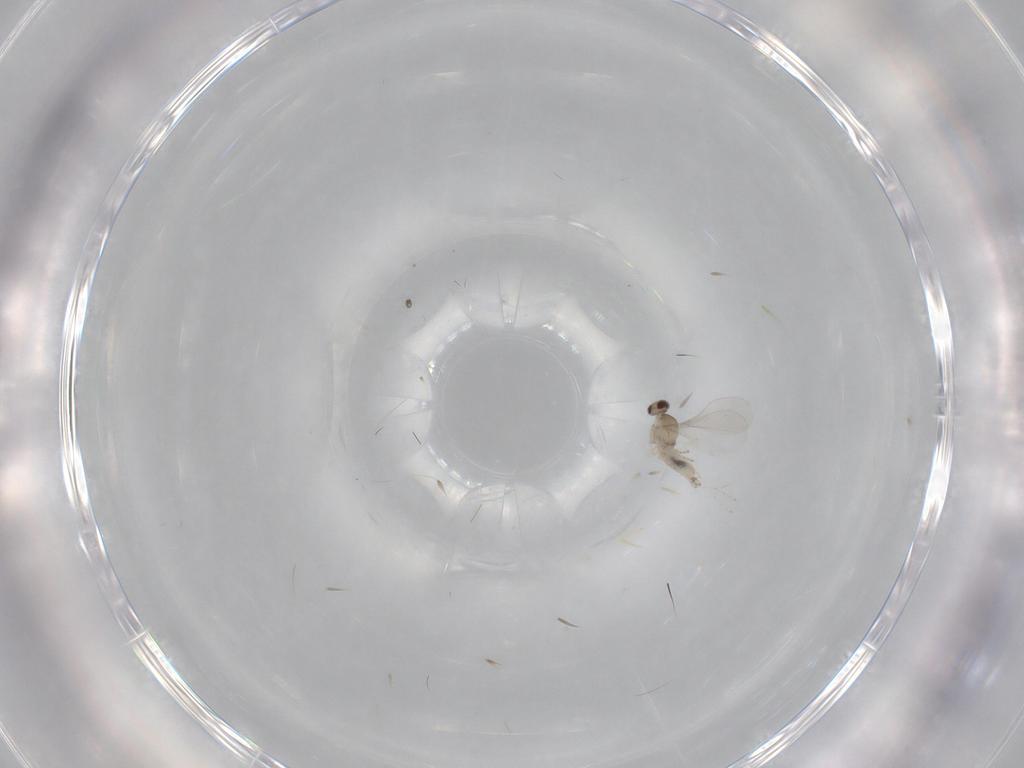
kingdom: Animalia
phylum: Arthropoda
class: Insecta
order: Diptera
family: Cecidomyiidae
